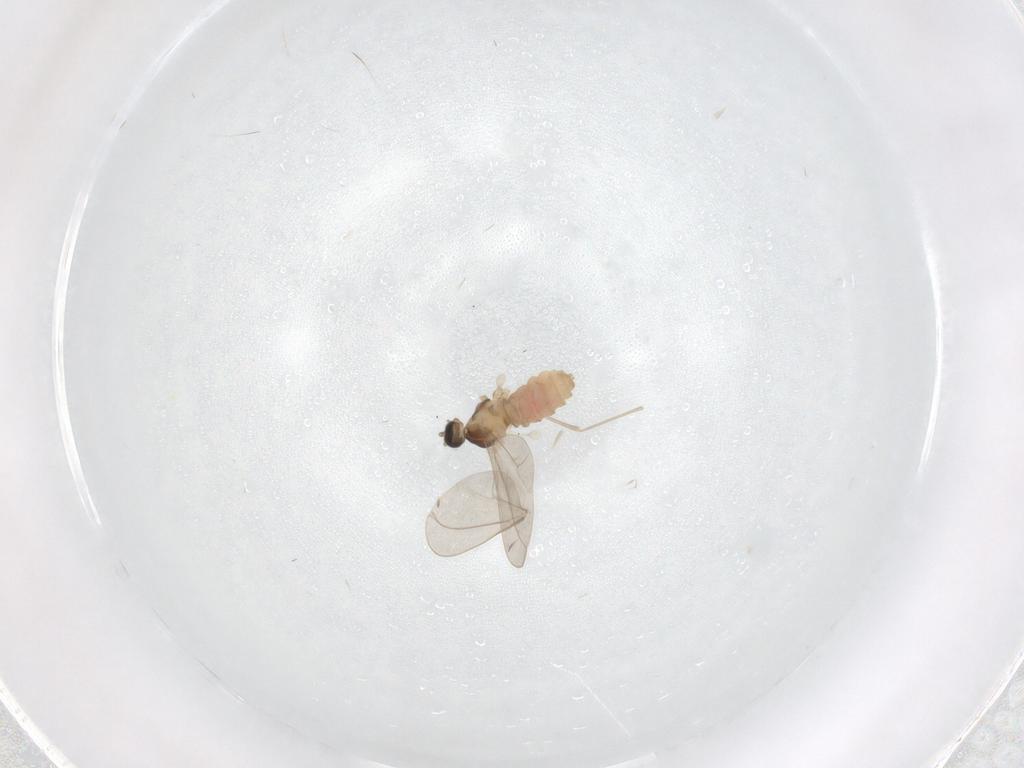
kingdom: Animalia
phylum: Arthropoda
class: Insecta
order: Diptera
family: Cecidomyiidae
